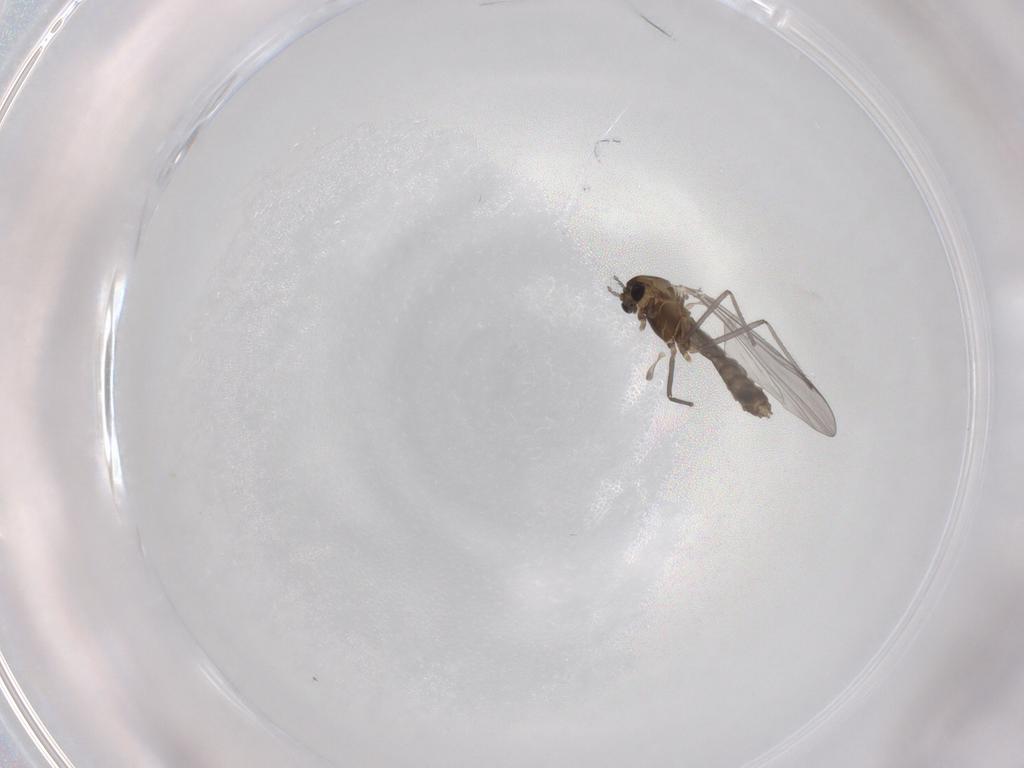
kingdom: Animalia
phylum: Arthropoda
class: Insecta
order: Diptera
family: Chironomidae
